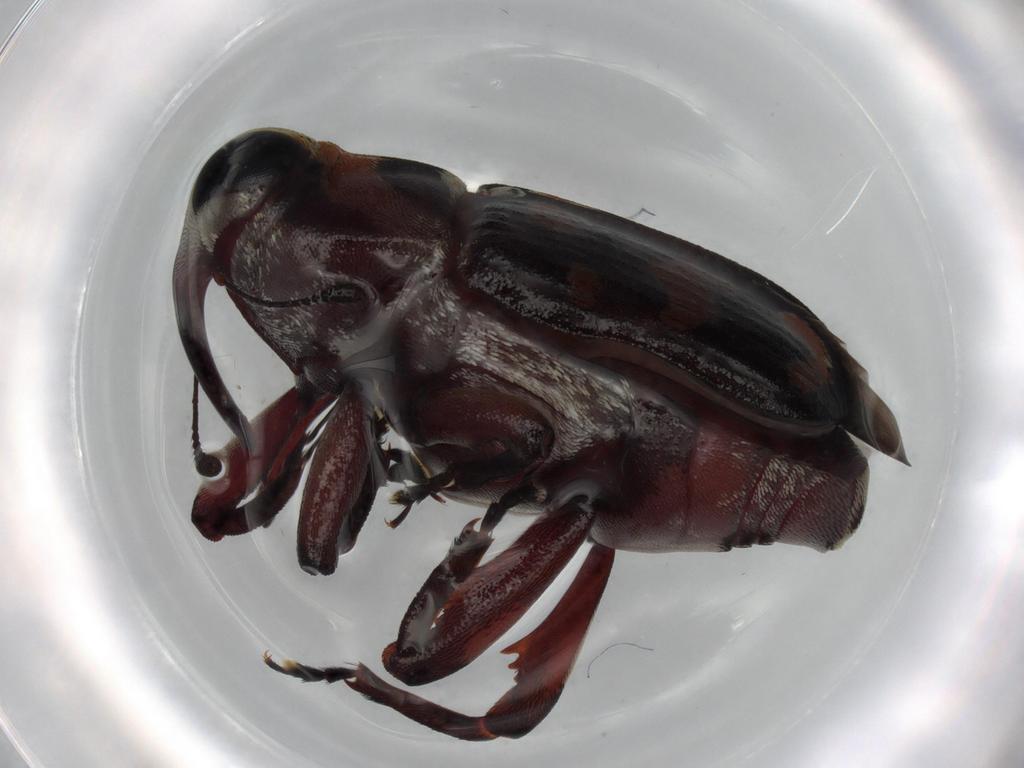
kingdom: Animalia
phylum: Arthropoda
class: Insecta
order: Coleoptera
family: Curculionidae
